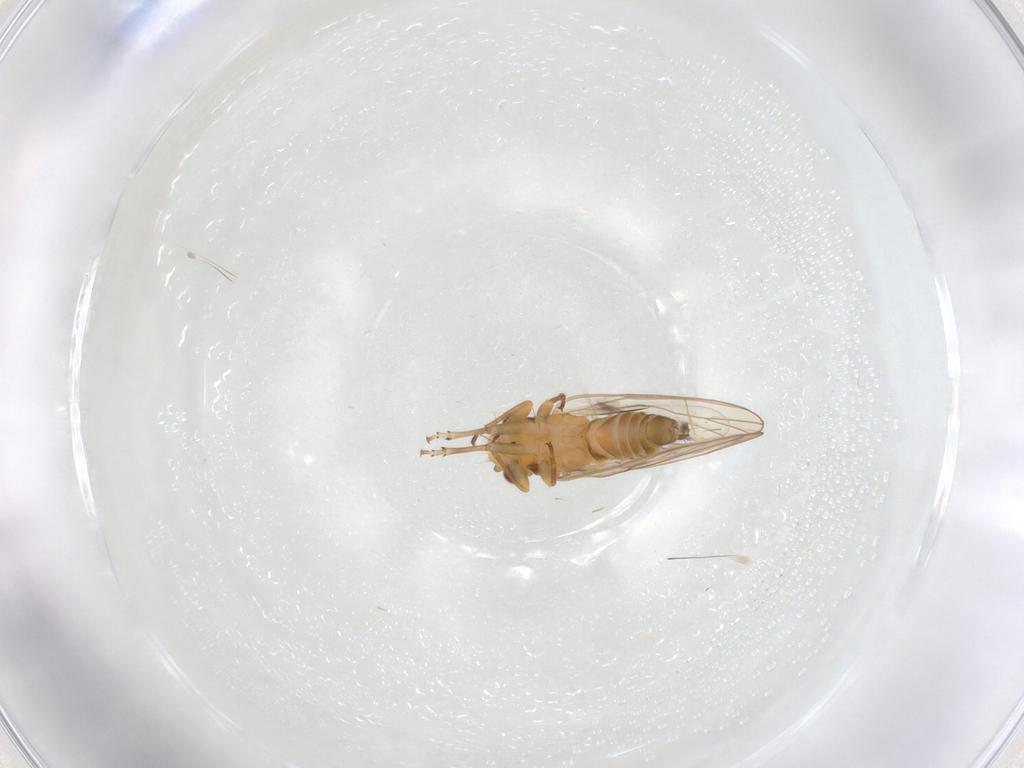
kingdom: Animalia
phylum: Arthropoda
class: Insecta
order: Hemiptera
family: Psyllidae
